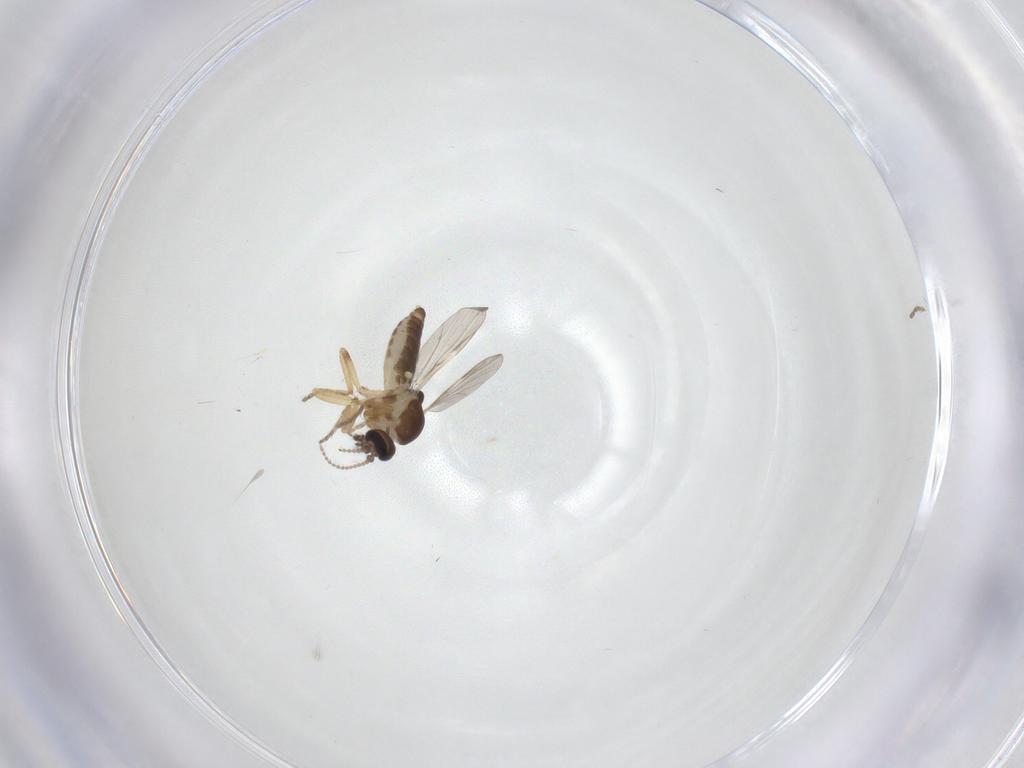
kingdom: Animalia
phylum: Arthropoda
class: Insecta
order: Diptera
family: Ceratopogonidae
